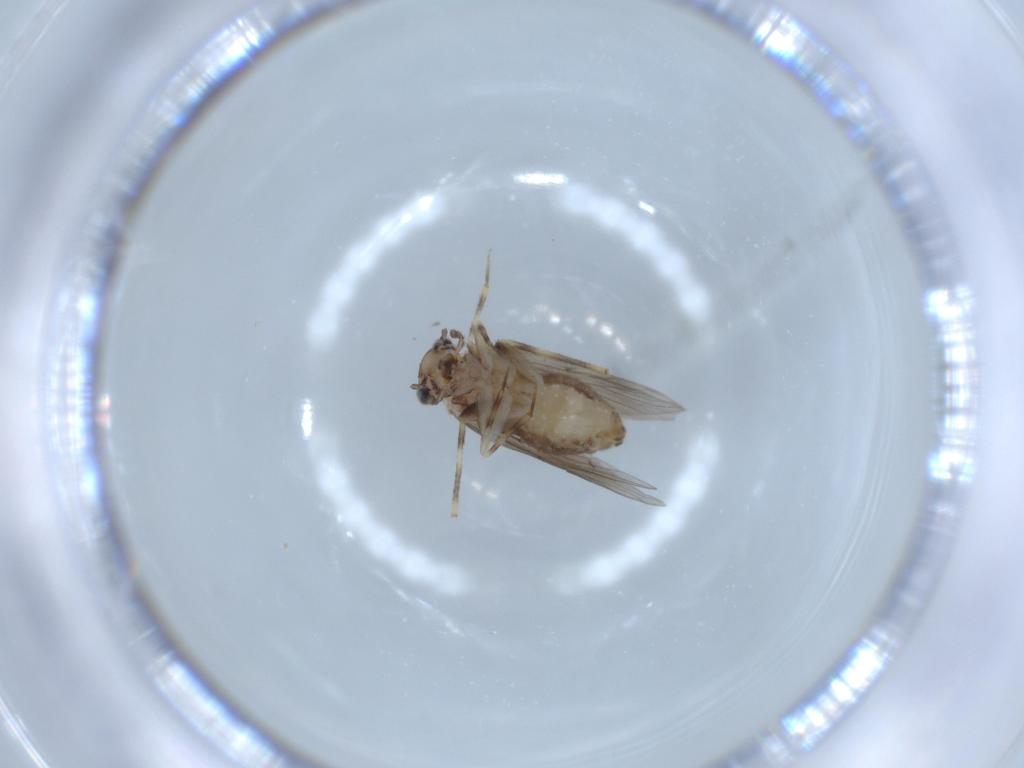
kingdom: Animalia
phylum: Arthropoda
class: Insecta
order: Psocodea
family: Lepidopsocidae
